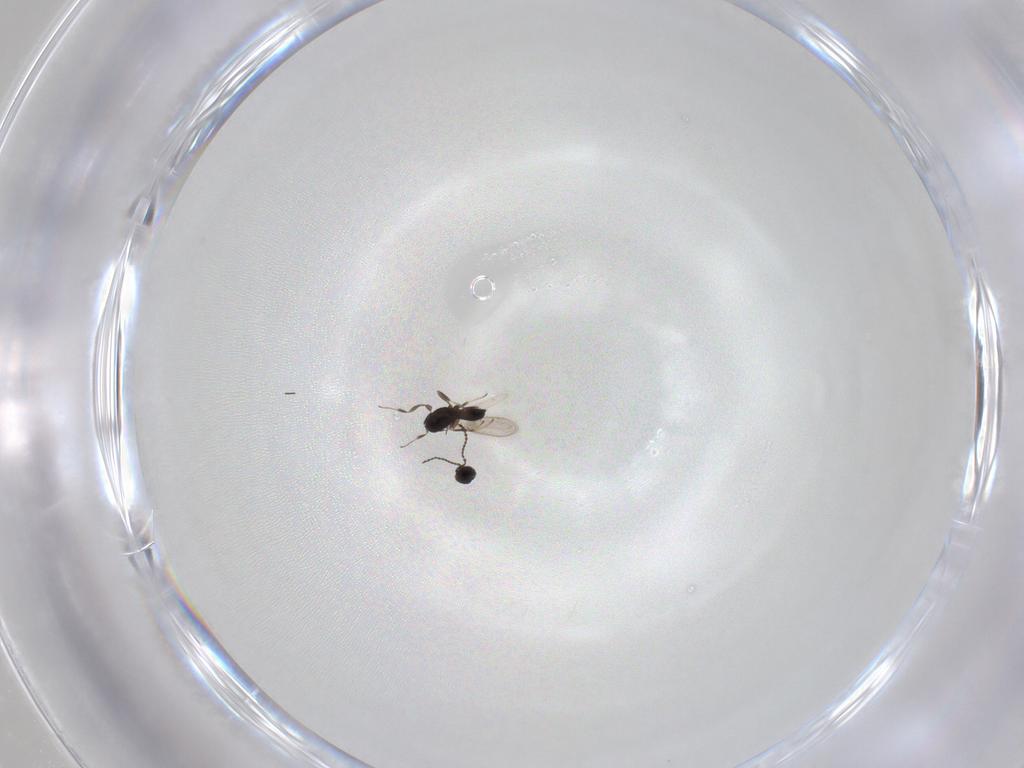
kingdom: Animalia
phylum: Arthropoda
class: Insecta
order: Hymenoptera
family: Scelionidae
